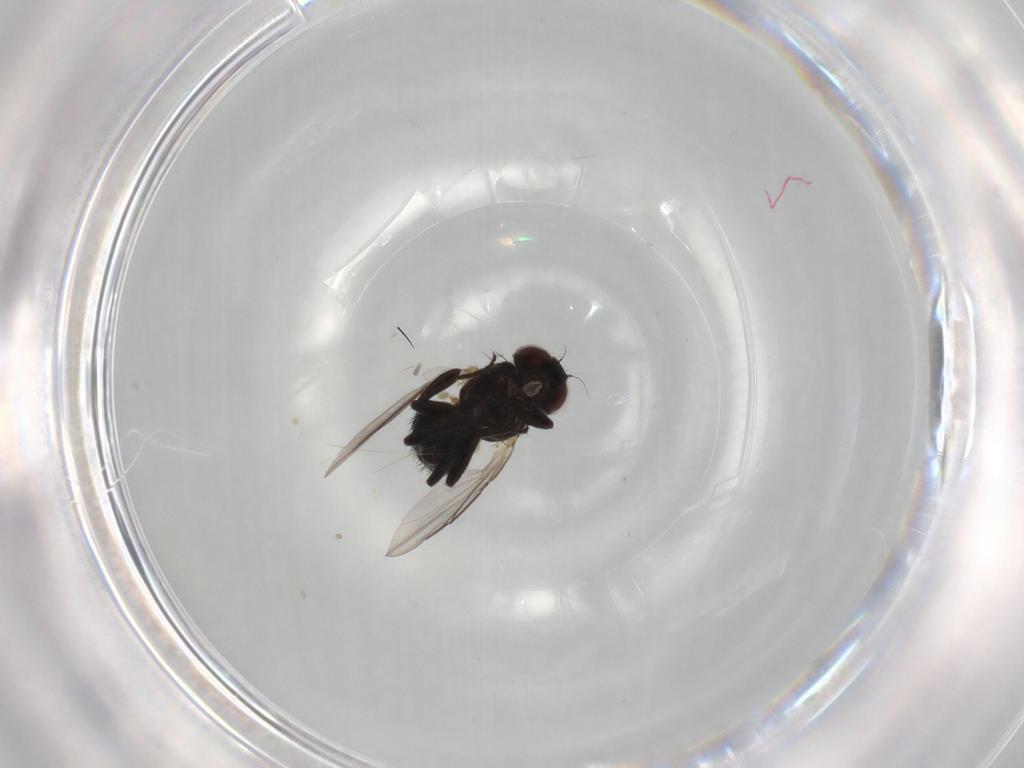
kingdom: Animalia
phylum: Arthropoda
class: Insecta
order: Diptera
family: Agromyzidae
